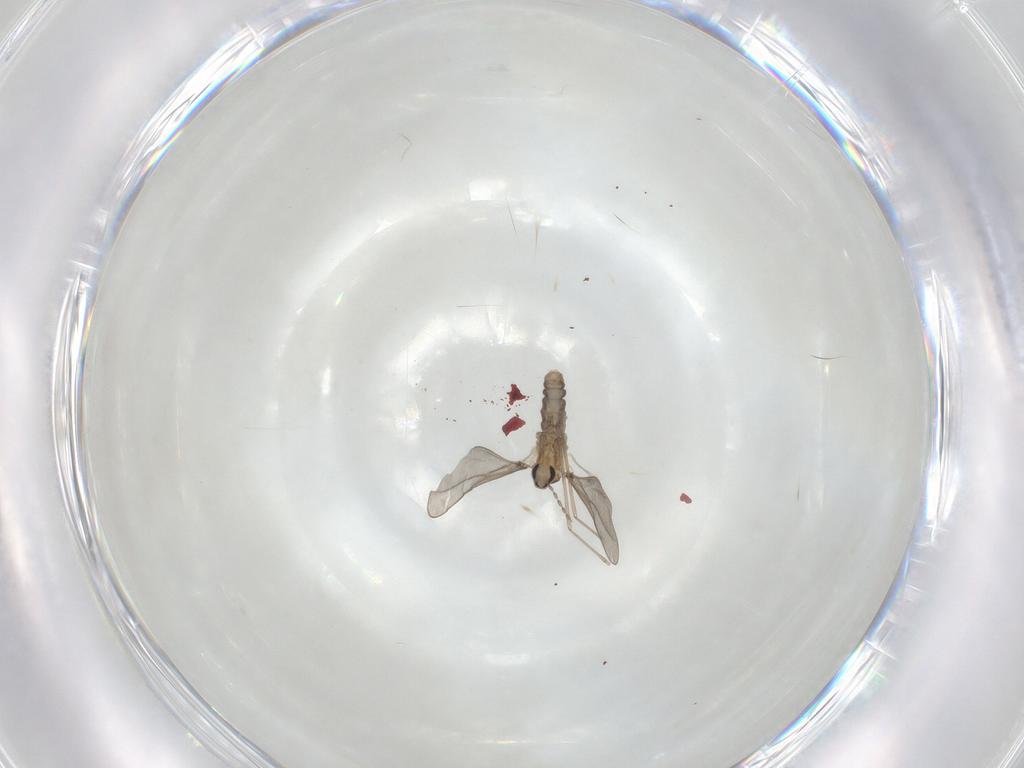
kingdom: Animalia
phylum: Arthropoda
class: Insecta
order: Diptera
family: Cecidomyiidae
